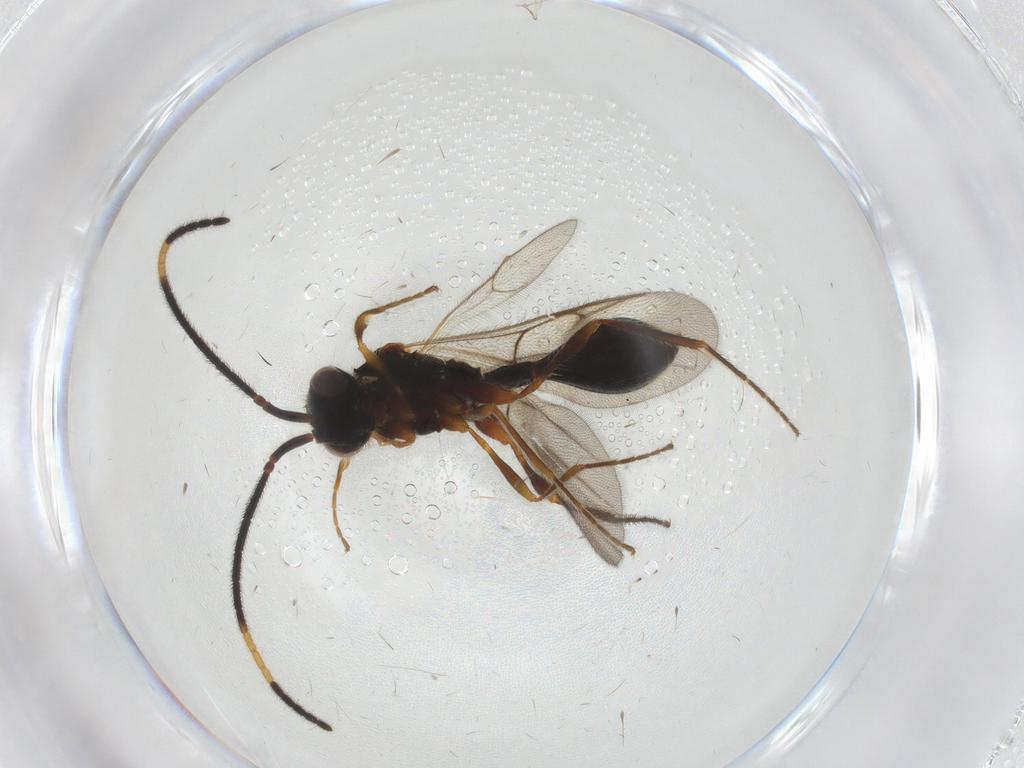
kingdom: Animalia
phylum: Arthropoda
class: Insecta
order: Hymenoptera
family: Diapriidae
